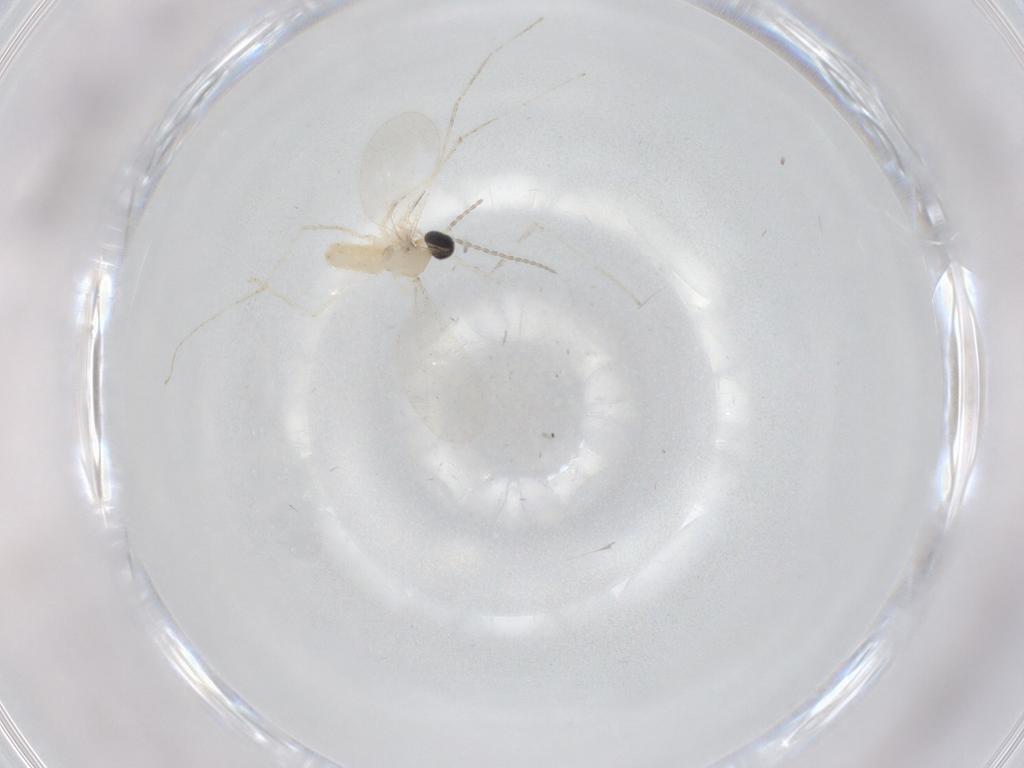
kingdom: Animalia
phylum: Arthropoda
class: Insecta
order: Diptera
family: Cecidomyiidae
